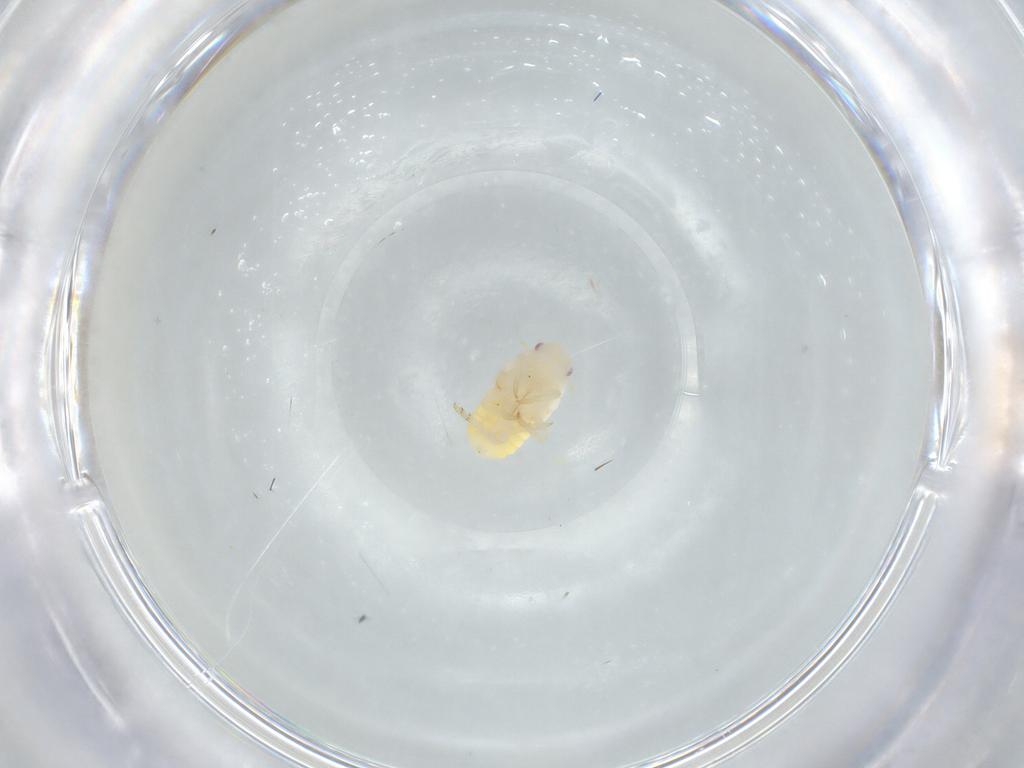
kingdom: Animalia
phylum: Arthropoda
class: Insecta
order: Hemiptera
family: Flatidae
